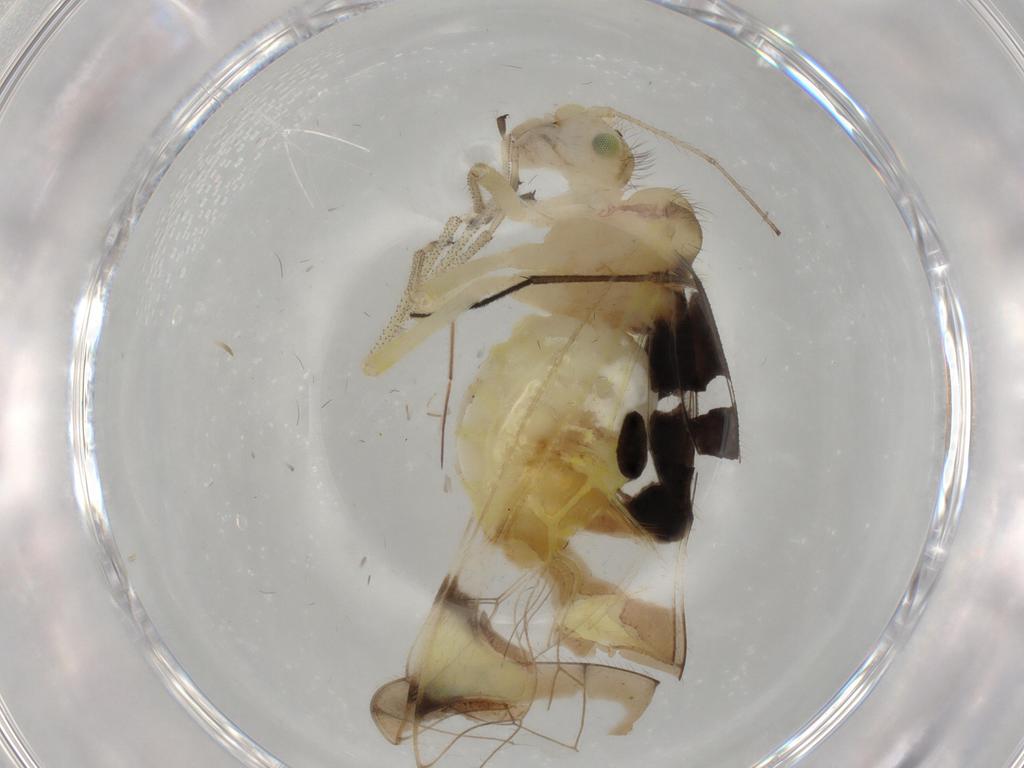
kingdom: Animalia
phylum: Arthropoda
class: Insecta
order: Psocodea
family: Amphipsocidae
